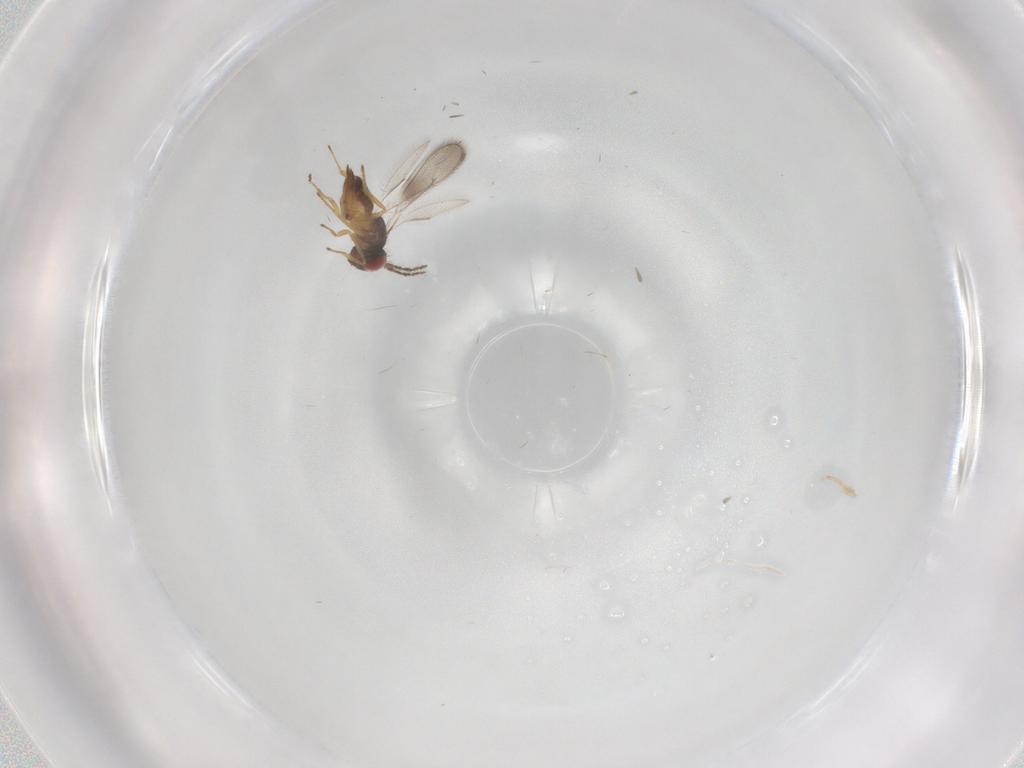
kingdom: Animalia
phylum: Arthropoda
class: Insecta
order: Hymenoptera
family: Eulophidae
